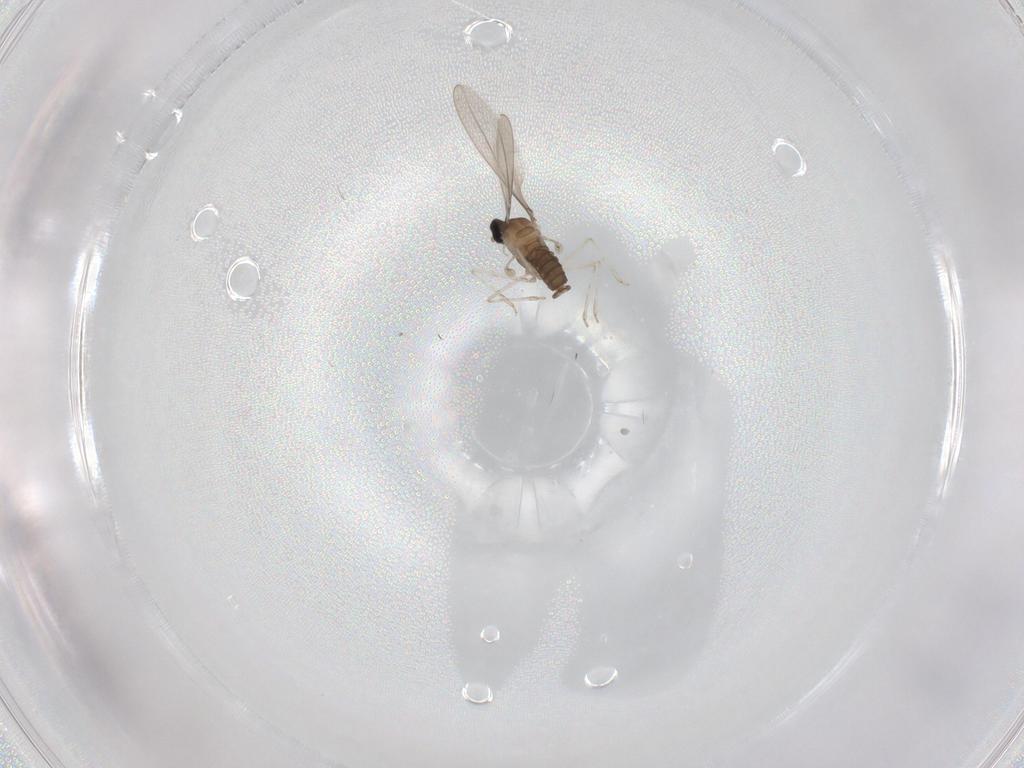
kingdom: Animalia
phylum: Arthropoda
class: Insecta
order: Diptera
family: Cecidomyiidae
